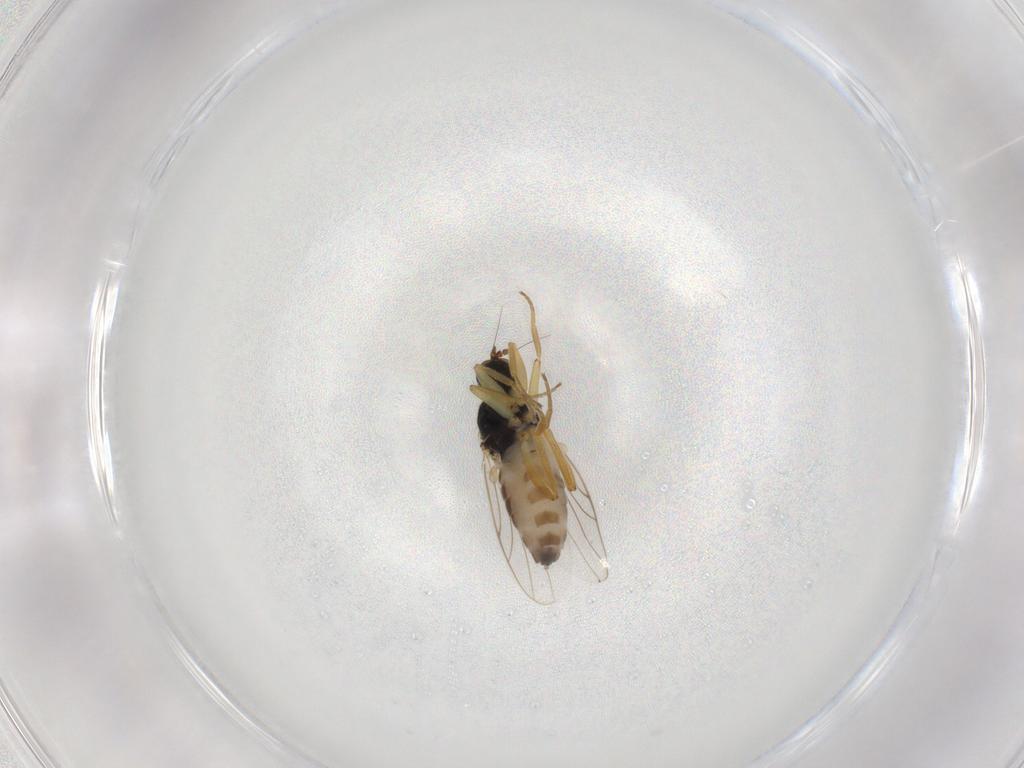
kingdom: Animalia
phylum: Arthropoda
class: Insecta
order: Diptera
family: Hybotidae
